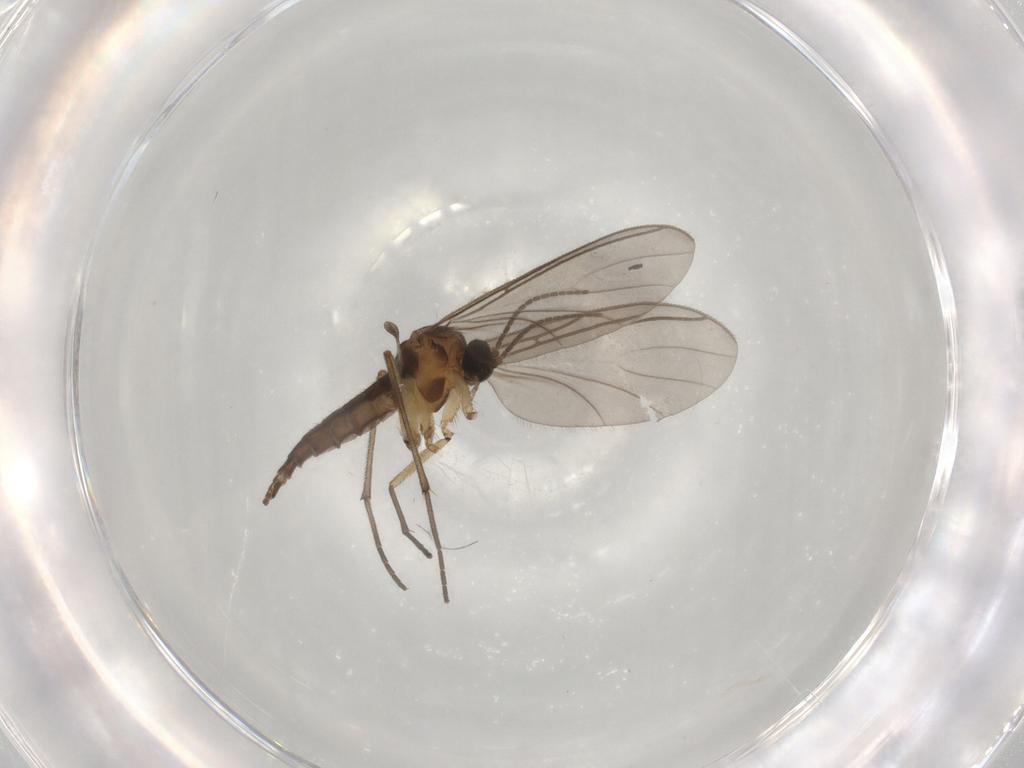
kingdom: Animalia
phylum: Arthropoda
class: Insecta
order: Diptera
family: Sciaridae
